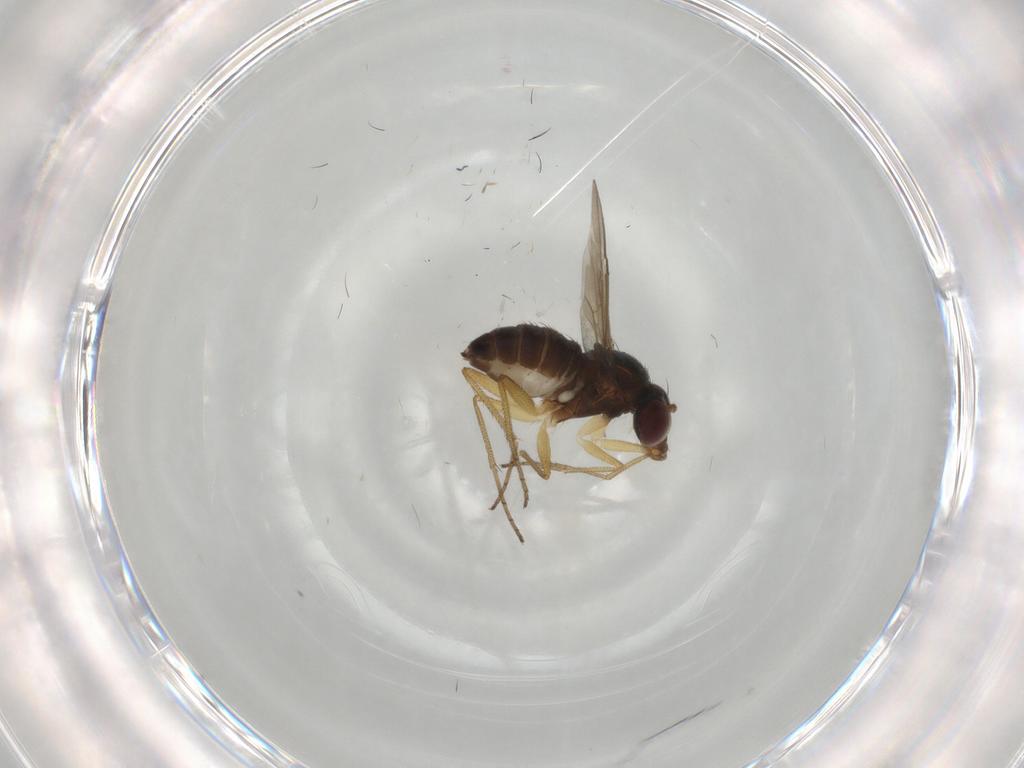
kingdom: Animalia
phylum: Arthropoda
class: Insecta
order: Diptera
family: Dolichopodidae
